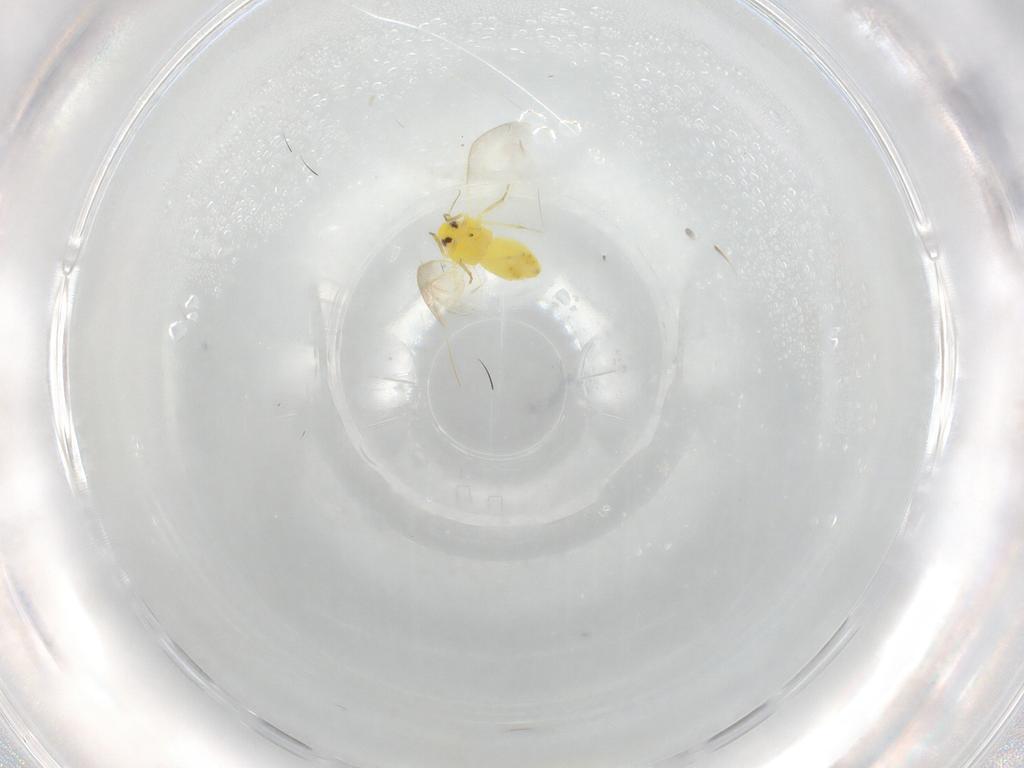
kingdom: Animalia
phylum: Arthropoda
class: Insecta
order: Hemiptera
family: Aleyrodidae
